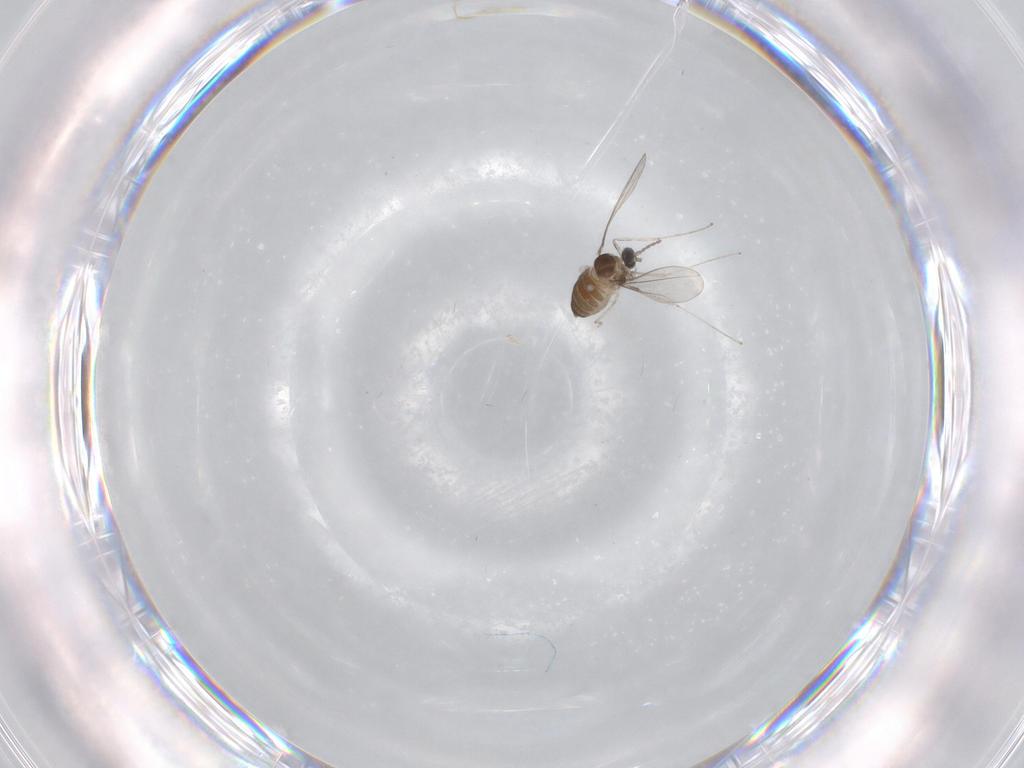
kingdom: Animalia
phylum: Arthropoda
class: Insecta
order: Diptera
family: Cecidomyiidae
